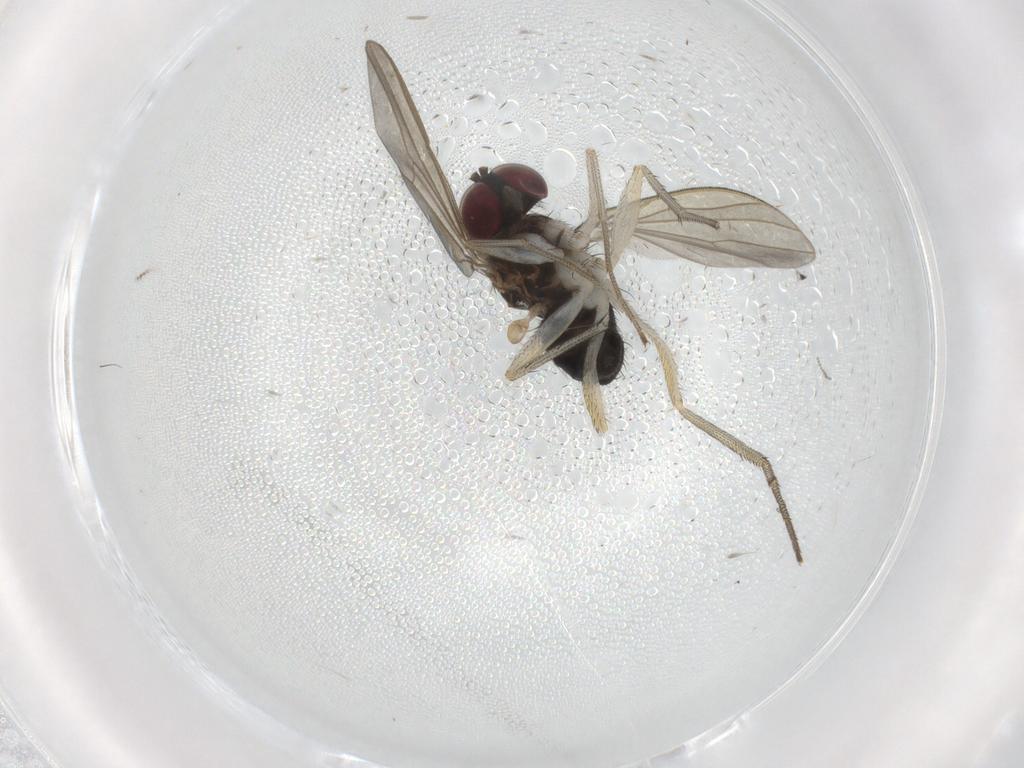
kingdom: Animalia
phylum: Arthropoda
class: Insecta
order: Diptera
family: Dolichopodidae
